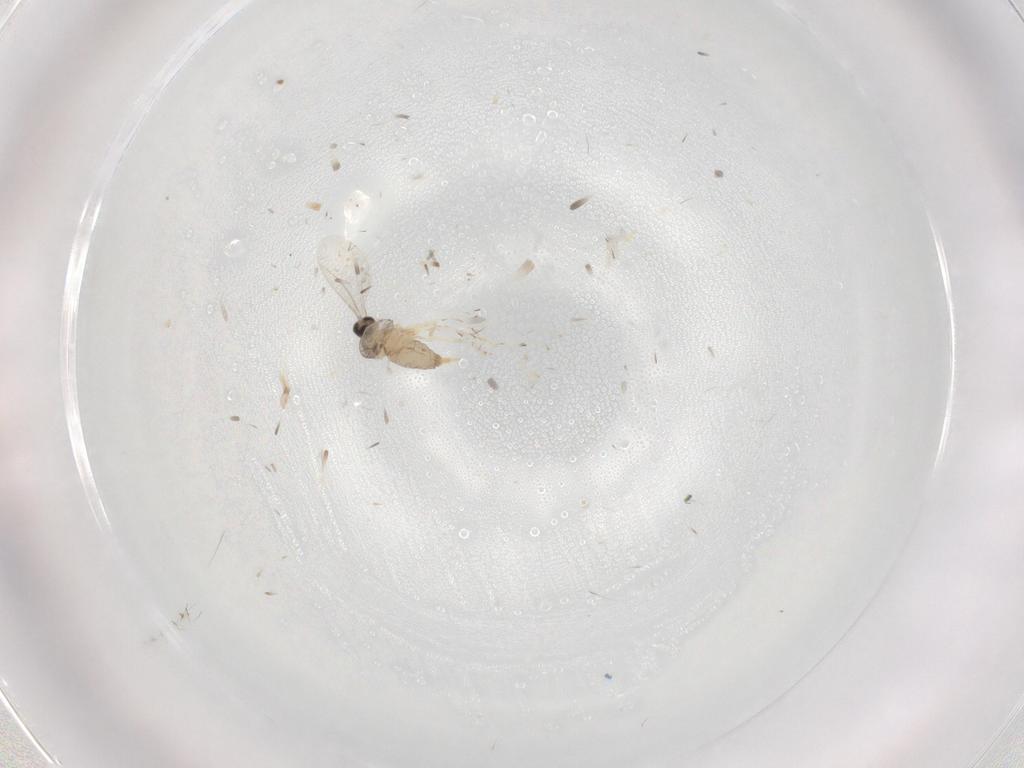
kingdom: Animalia
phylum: Arthropoda
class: Insecta
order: Diptera
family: Cecidomyiidae
